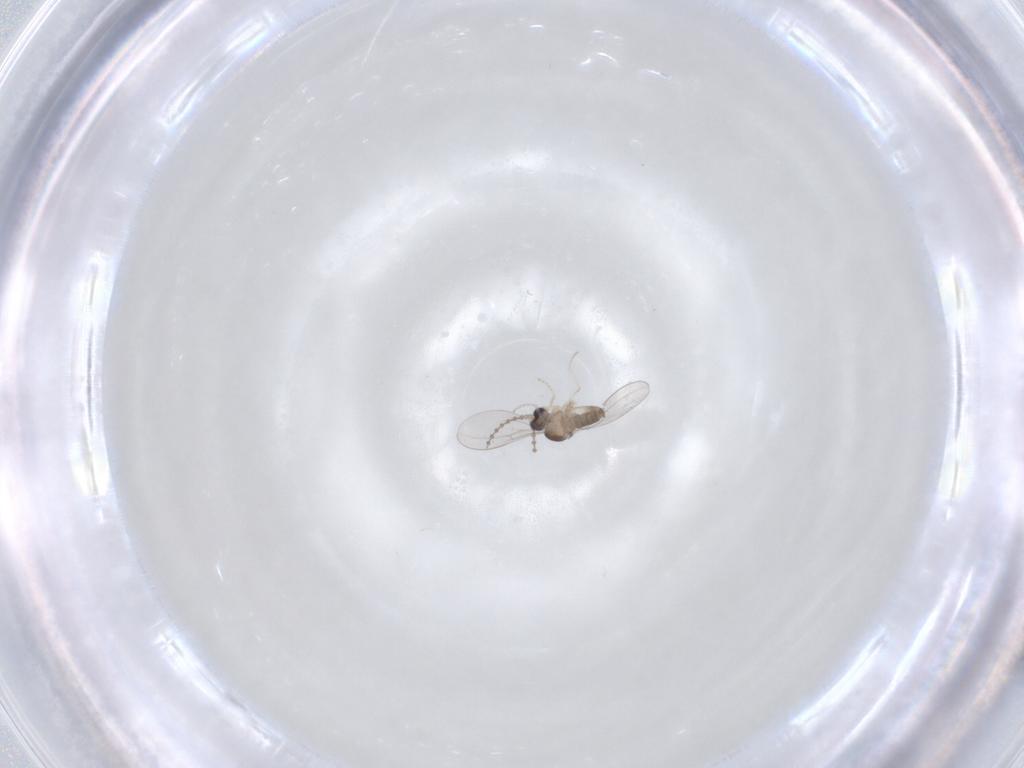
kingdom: Animalia
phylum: Arthropoda
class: Insecta
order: Diptera
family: Cecidomyiidae
